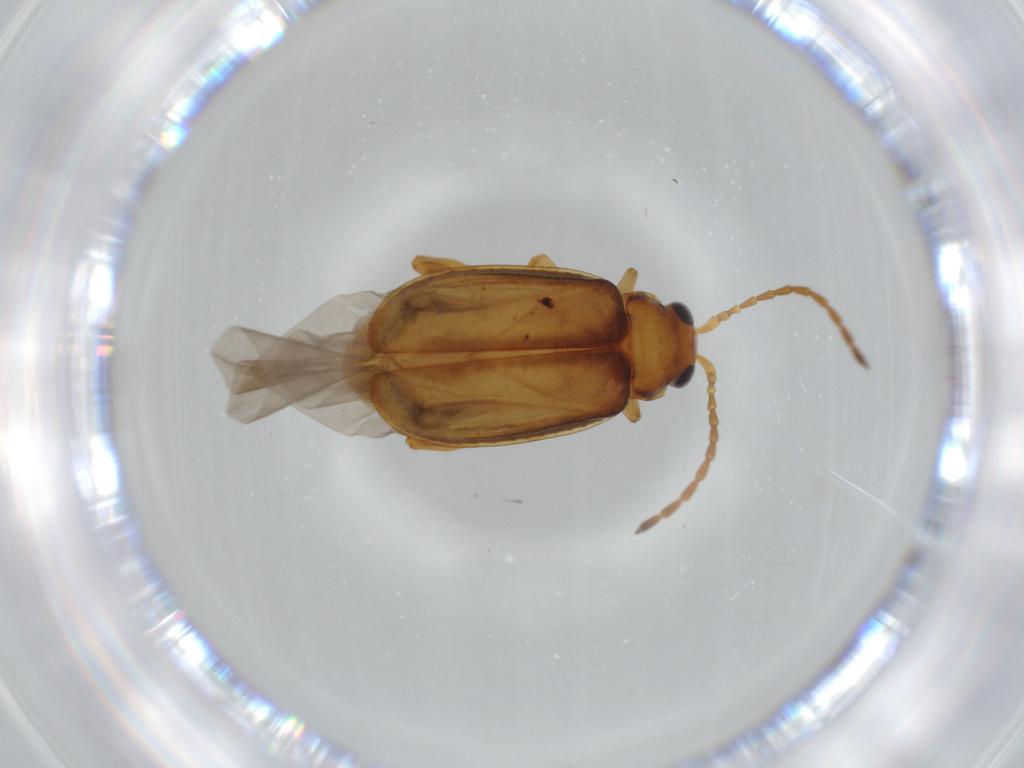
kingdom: Animalia
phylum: Arthropoda
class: Insecta
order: Coleoptera
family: Chrysomelidae
